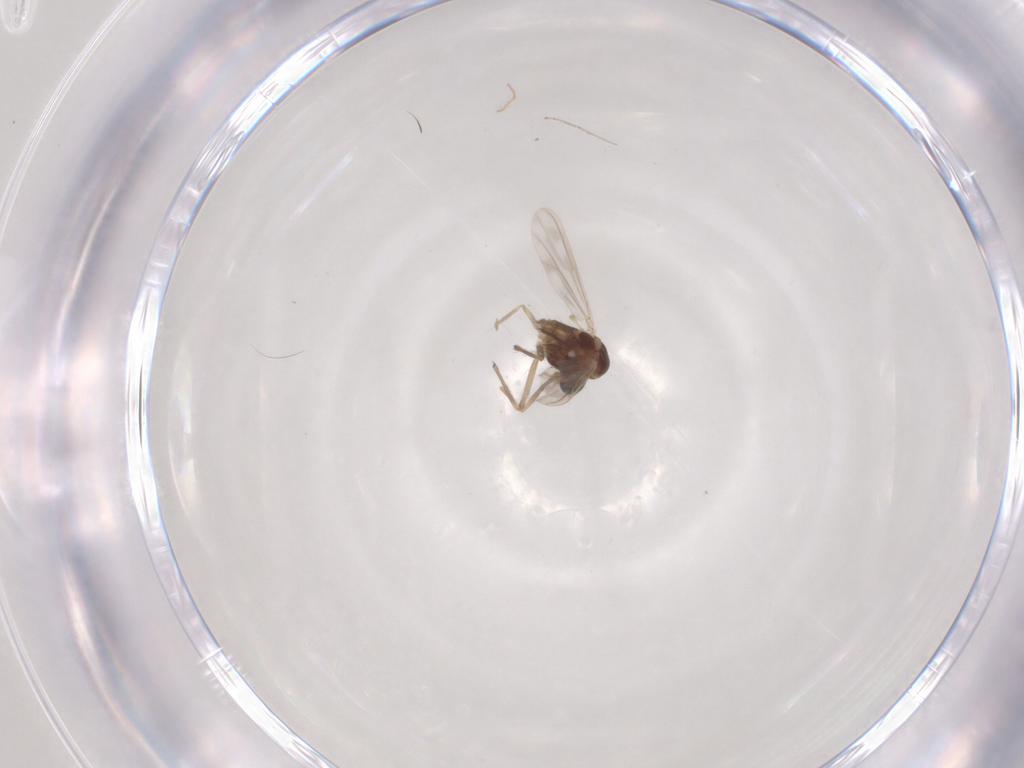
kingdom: Animalia
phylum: Arthropoda
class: Insecta
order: Diptera
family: Chironomidae
